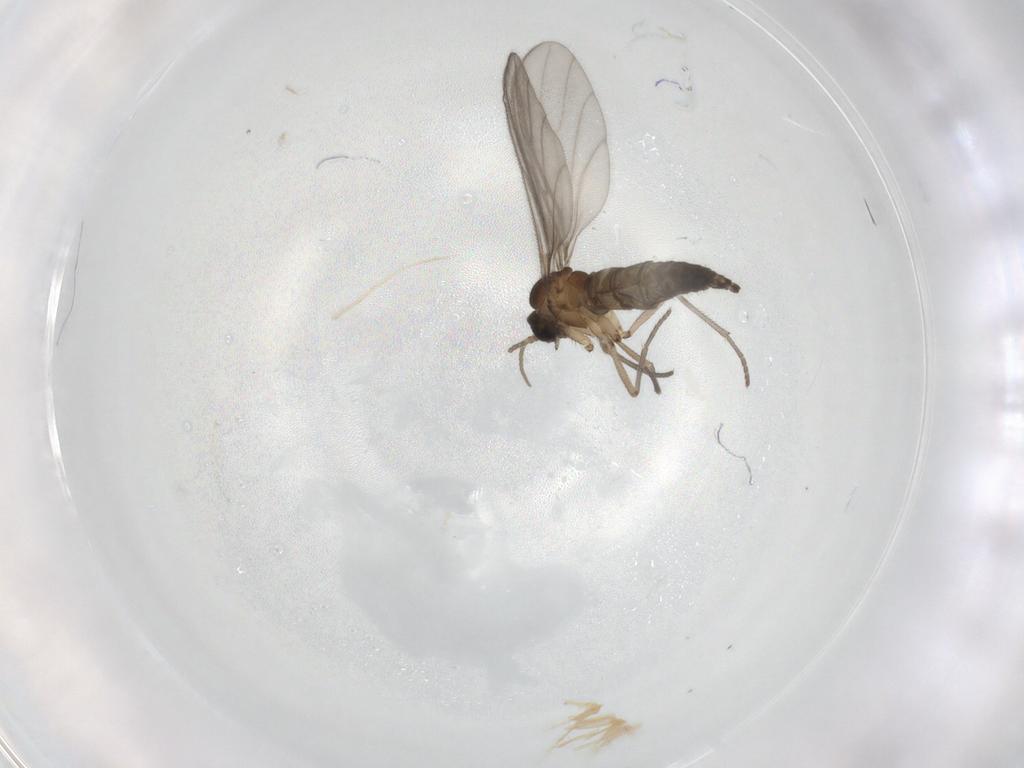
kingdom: Animalia
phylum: Arthropoda
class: Insecta
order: Diptera
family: Sciaridae
